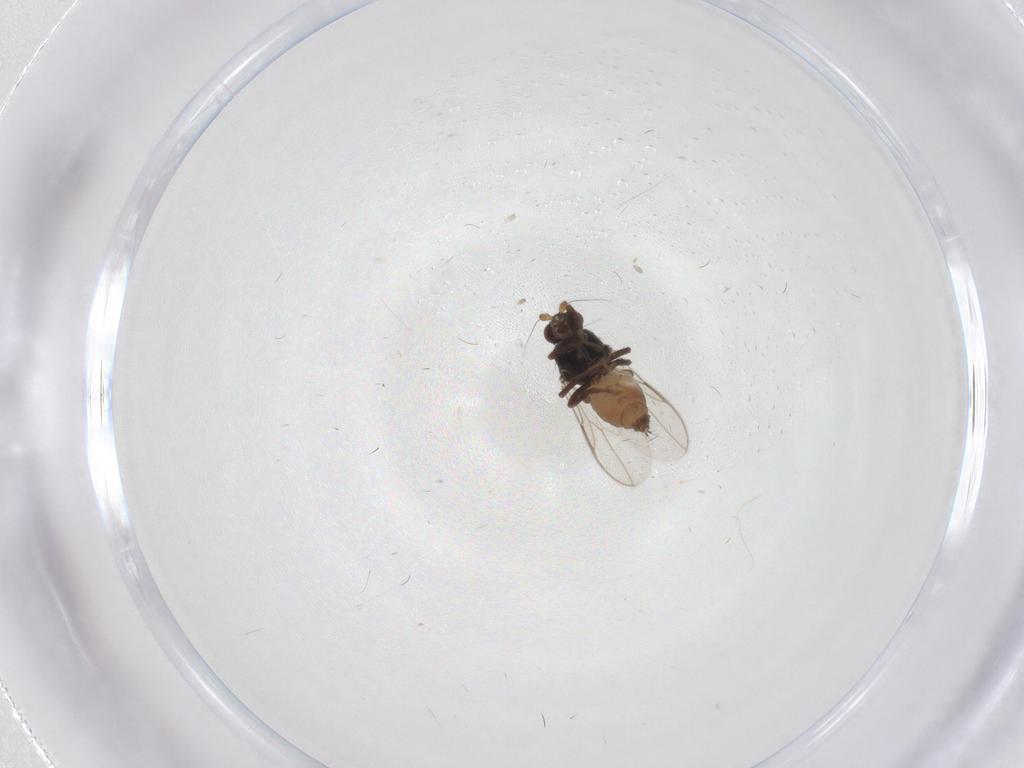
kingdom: Animalia
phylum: Arthropoda
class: Insecta
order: Diptera
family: Sphaeroceridae
